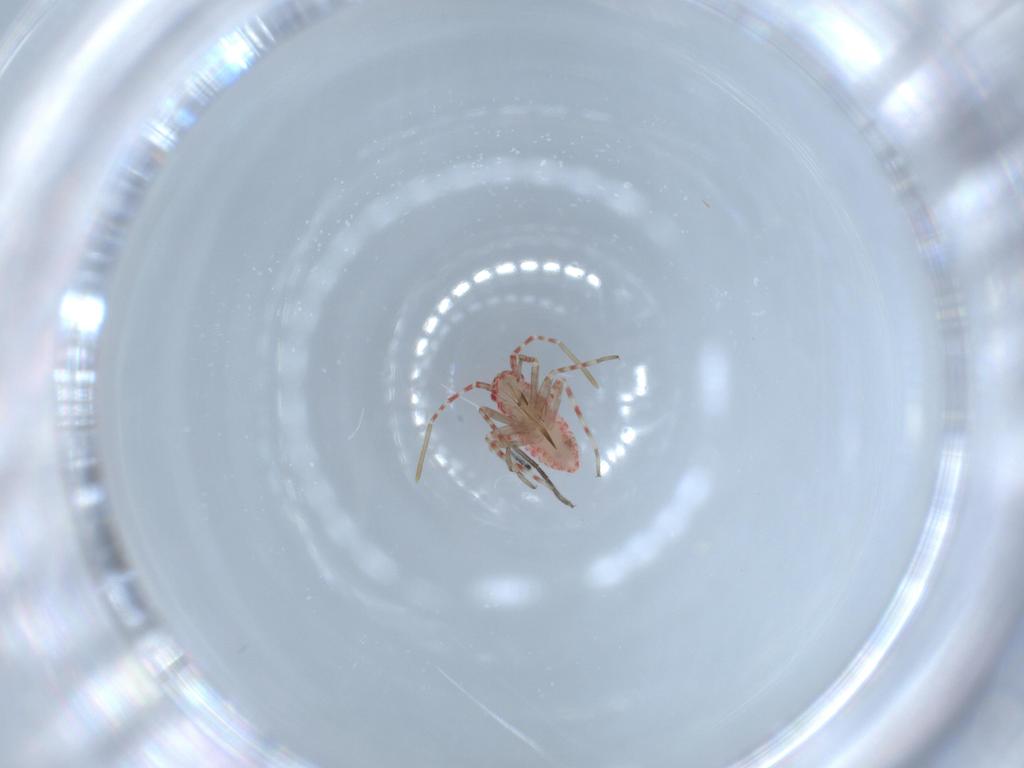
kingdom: Animalia
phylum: Arthropoda
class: Insecta
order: Hemiptera
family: Miridae
